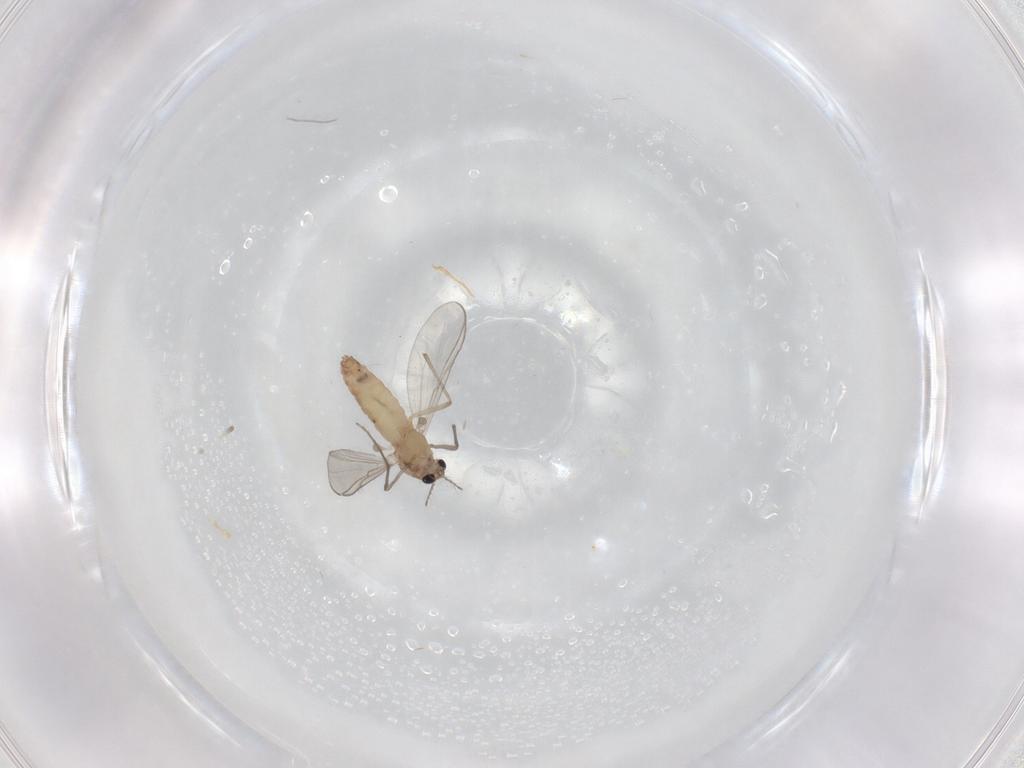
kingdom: Animalia
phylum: Arthropoda
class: Insecta
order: Diptera
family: Chironomidae
